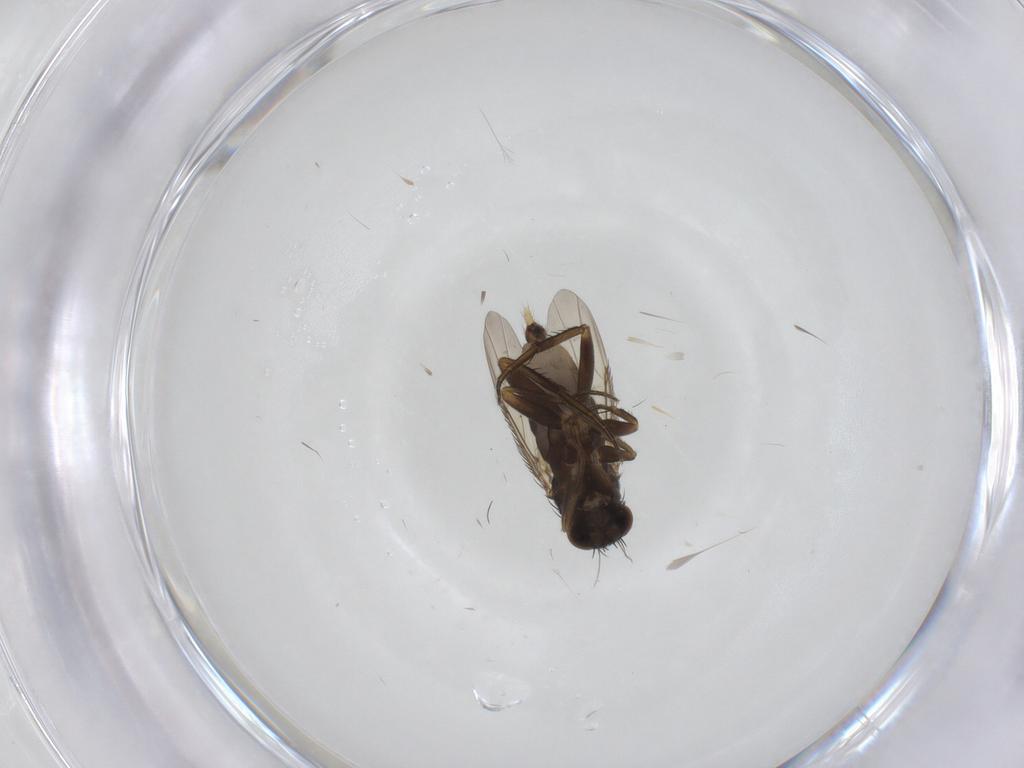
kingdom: Animalia
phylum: Arthropoda
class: Insecta
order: Diptera
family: Phoridae
